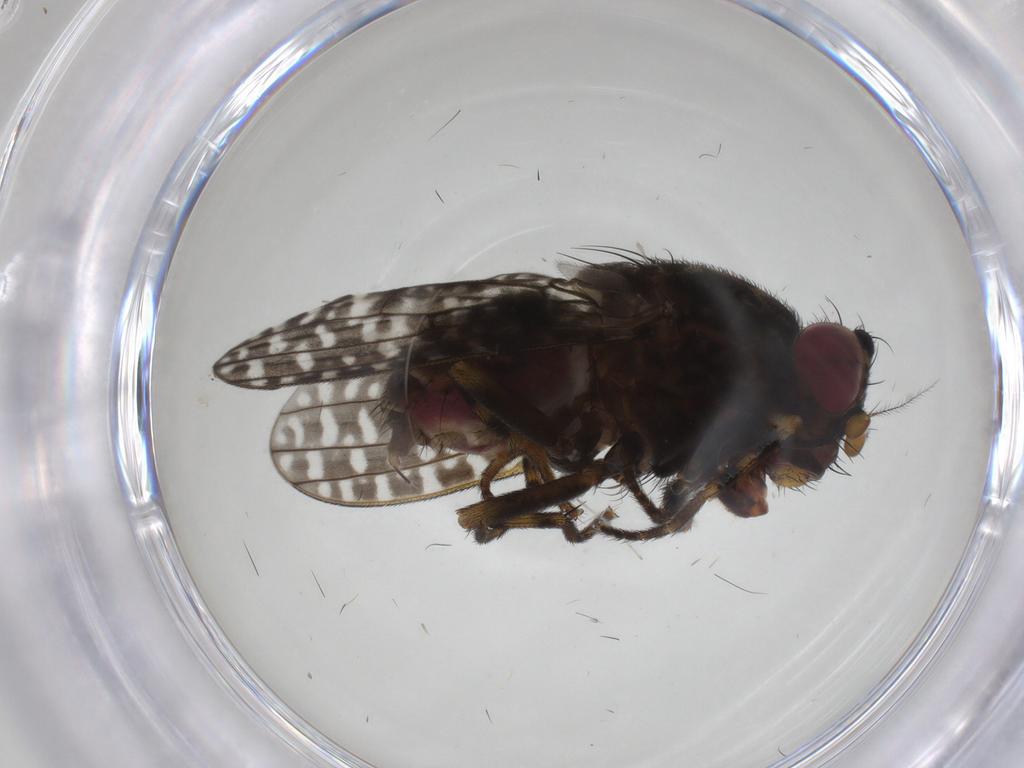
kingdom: Animalia
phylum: Arthropoda
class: Insecta
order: Diptera
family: Ephydridae
